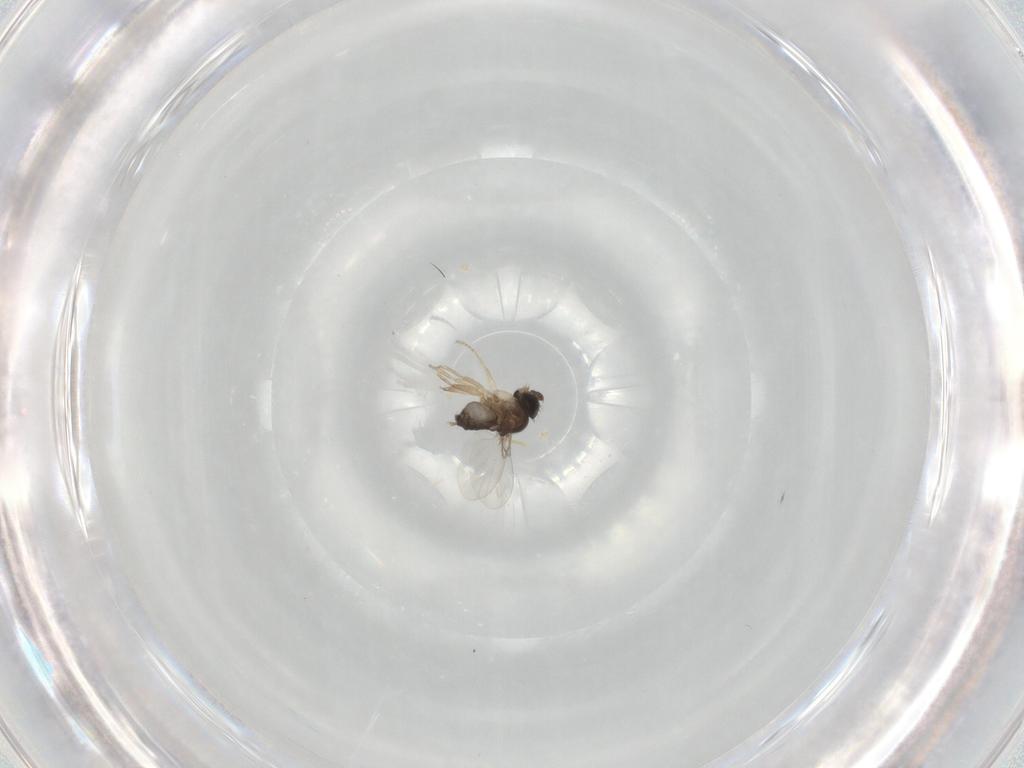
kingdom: Animalia
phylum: Arthropoda
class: Insecta
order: Diptera
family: Phoridae
